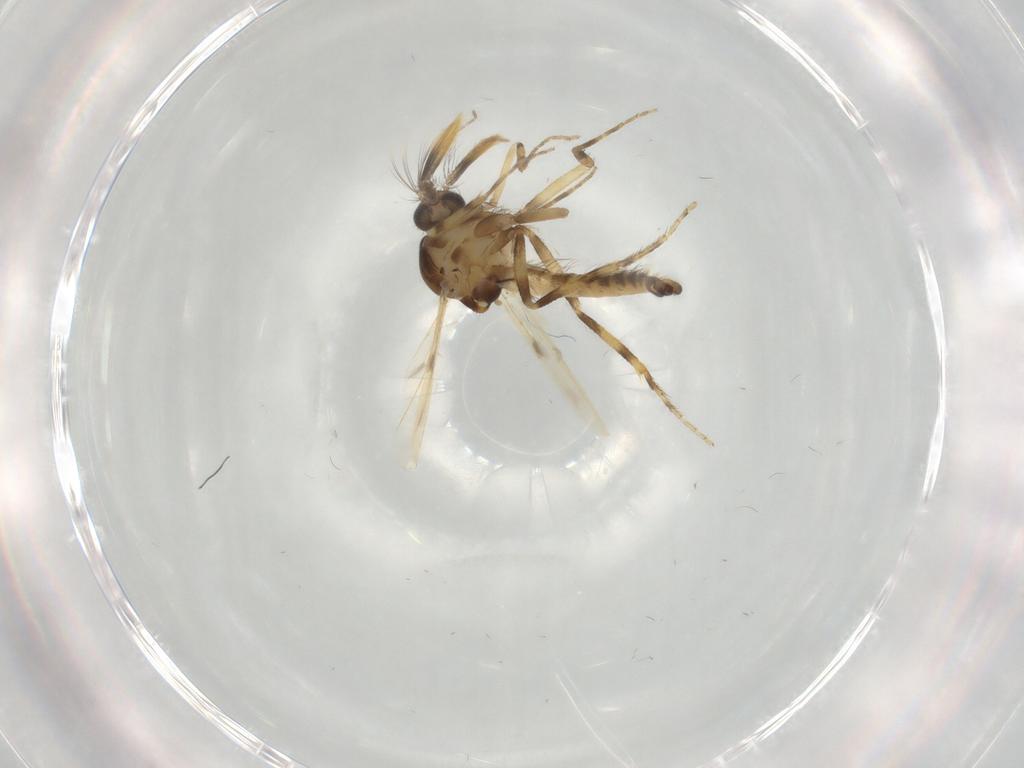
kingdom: Animalia
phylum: Arthropoda
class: Insecta
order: Diptera
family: Ceratopogonidae
